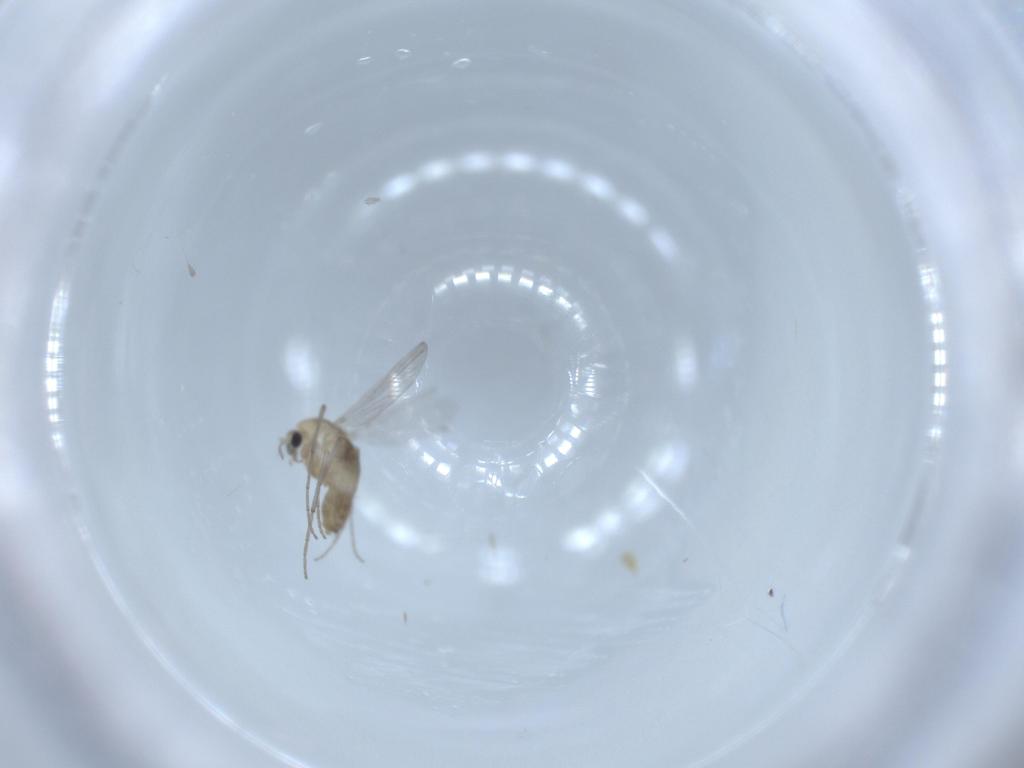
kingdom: Animalia
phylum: Arthropoda
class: Insecta
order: Diptera
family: Chironomidae
